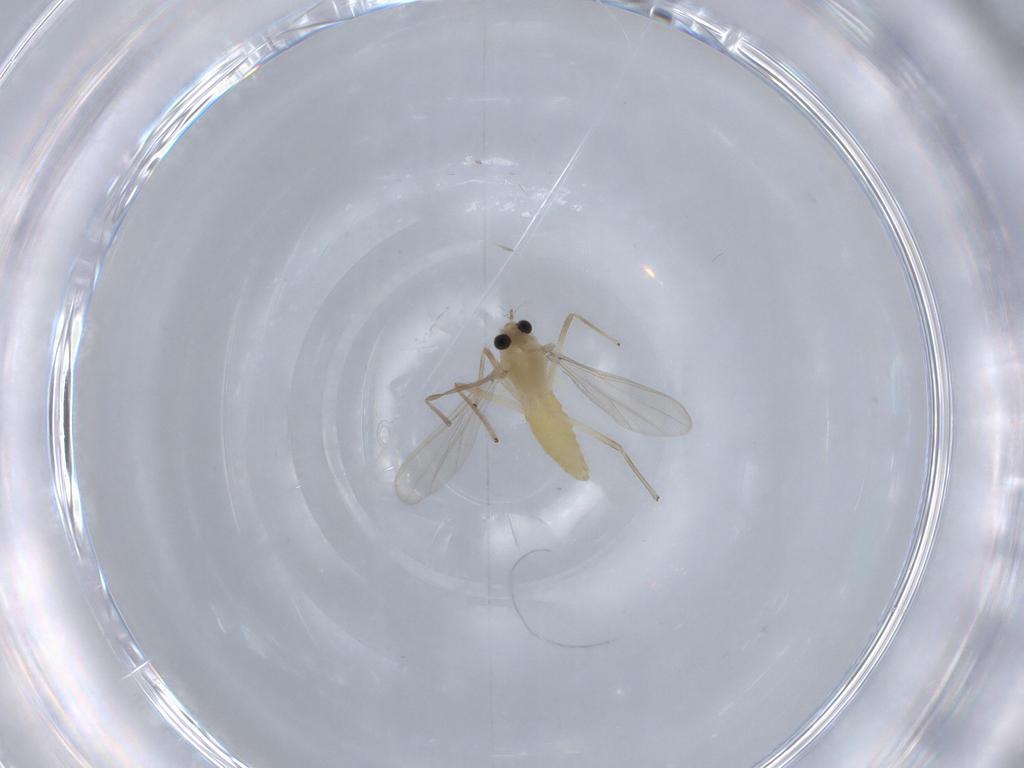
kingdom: Animalia
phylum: Arthropoda
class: Insecta
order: Diptera
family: Chironomidae
